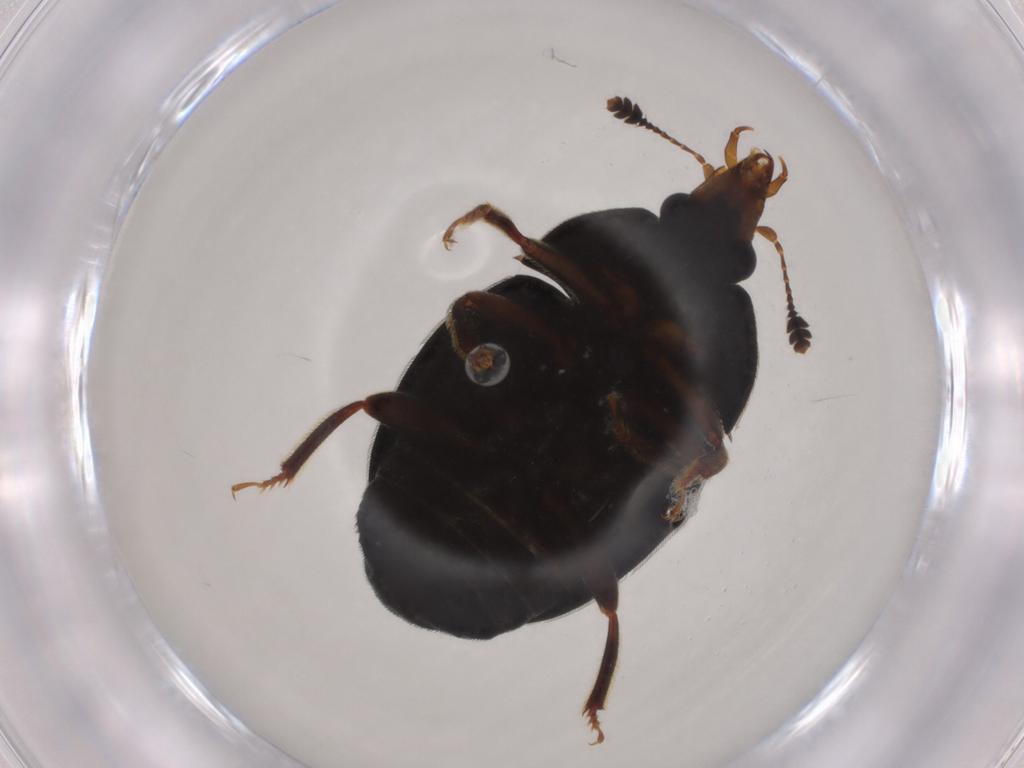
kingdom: Animalia
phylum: Arthropoda
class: Insecta
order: Coleoptera
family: Phengodidae
